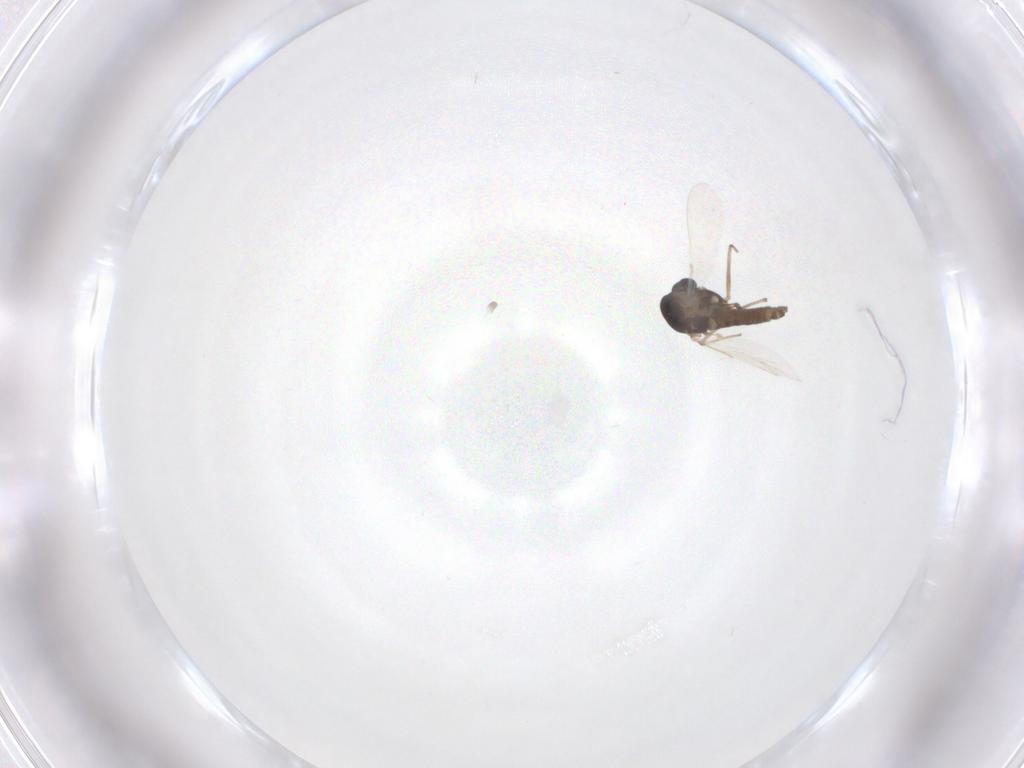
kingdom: Animalia
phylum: Arthropoda
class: Insecta
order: Diptera
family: Chironomidae
